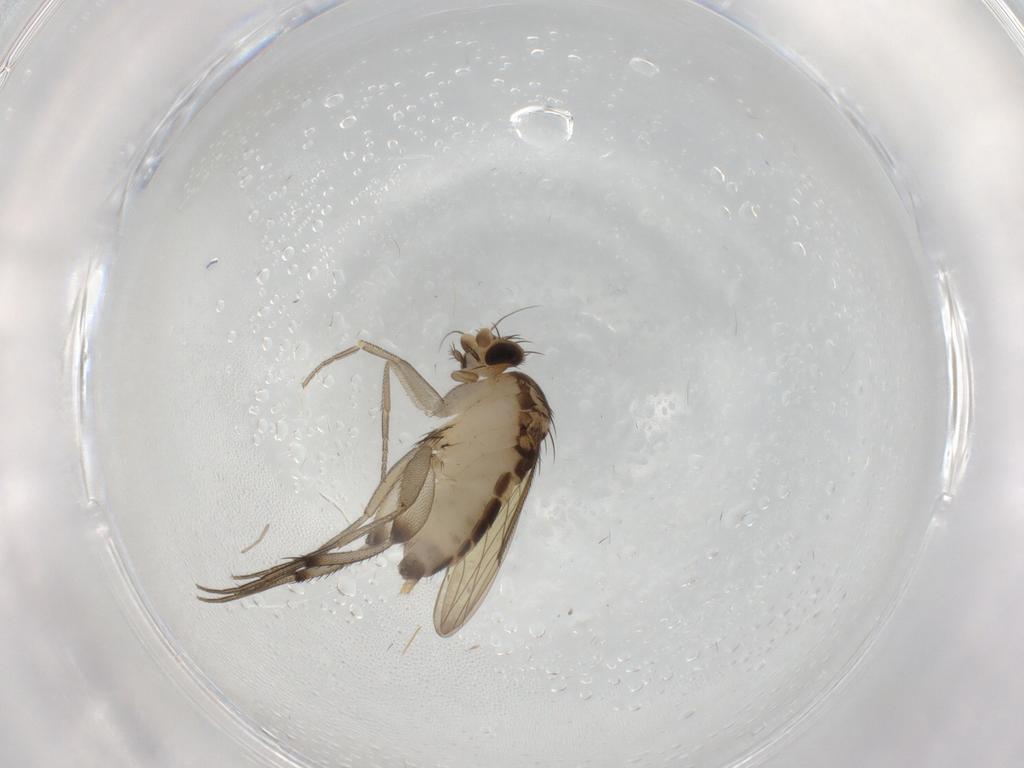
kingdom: Animalia
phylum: Arthropoda
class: Insecta
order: Diptera
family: Phoridae
